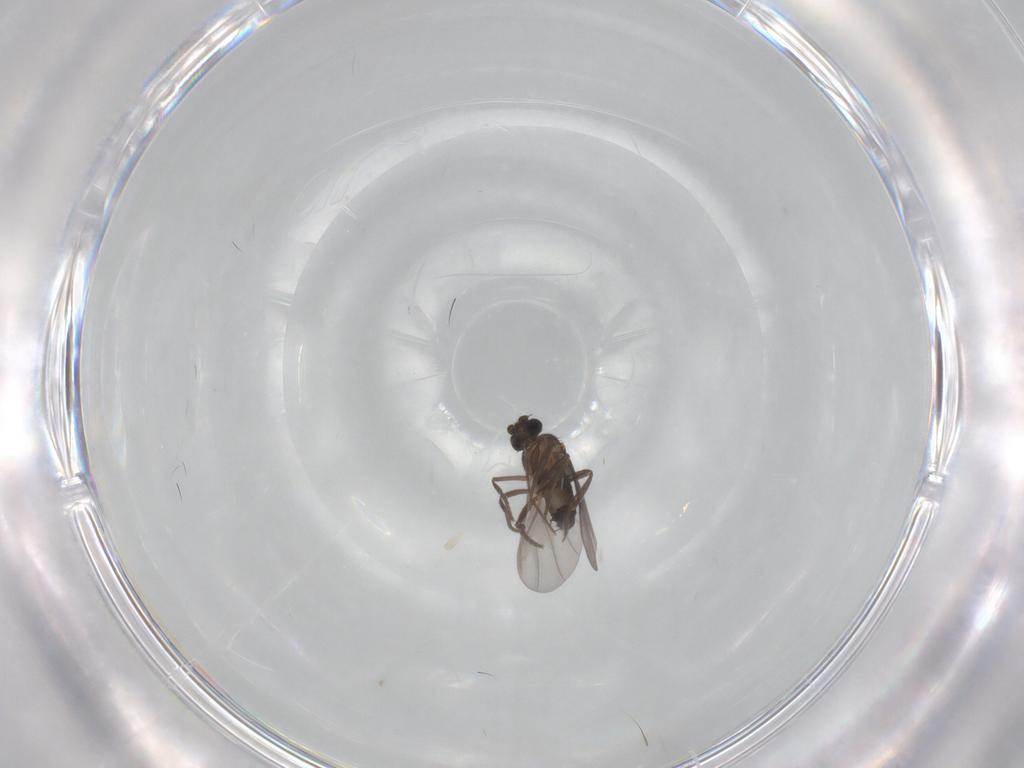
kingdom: Animalia
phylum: Arthropoda
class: Insecta
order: Diptera
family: Phoridae
